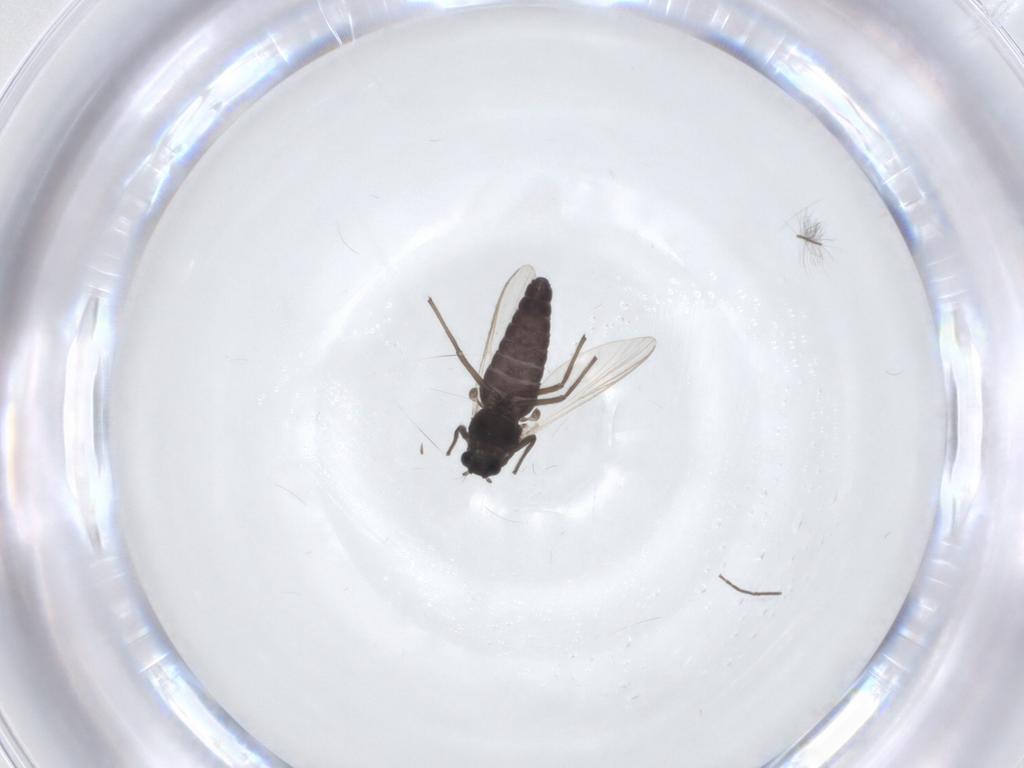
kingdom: Animalia
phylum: Arthropoda
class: Insecta
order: Diptera
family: Chironomidae
